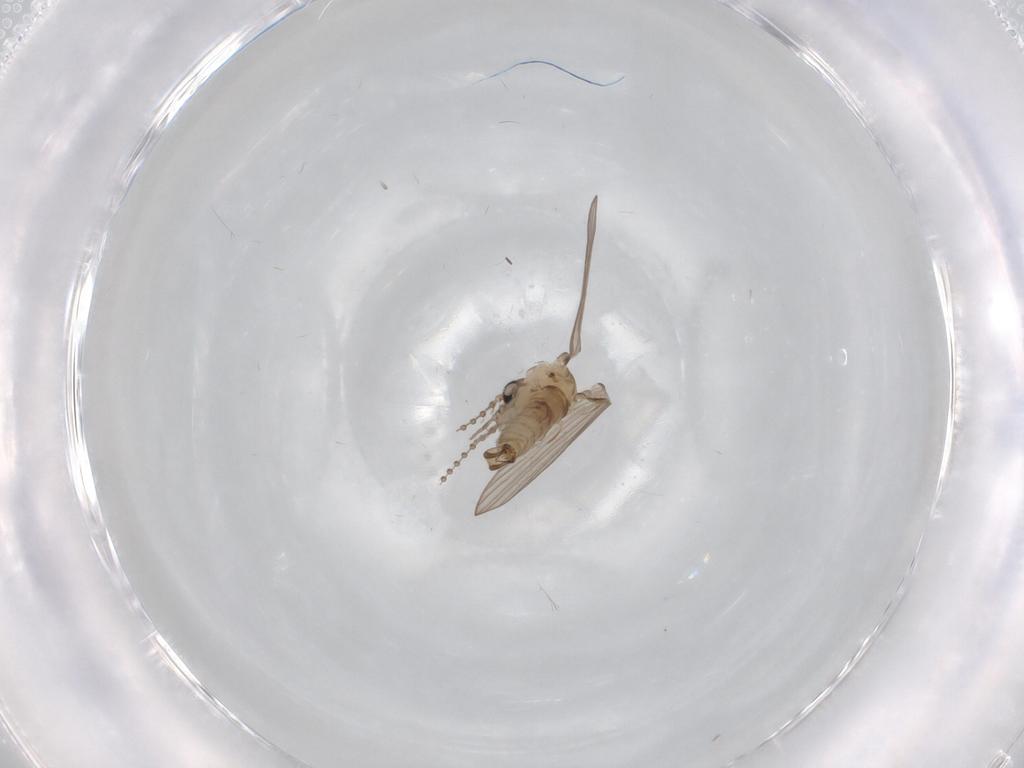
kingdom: Animalia
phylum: Arthropoda
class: Insecta
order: Diptera
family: Psychodidae
